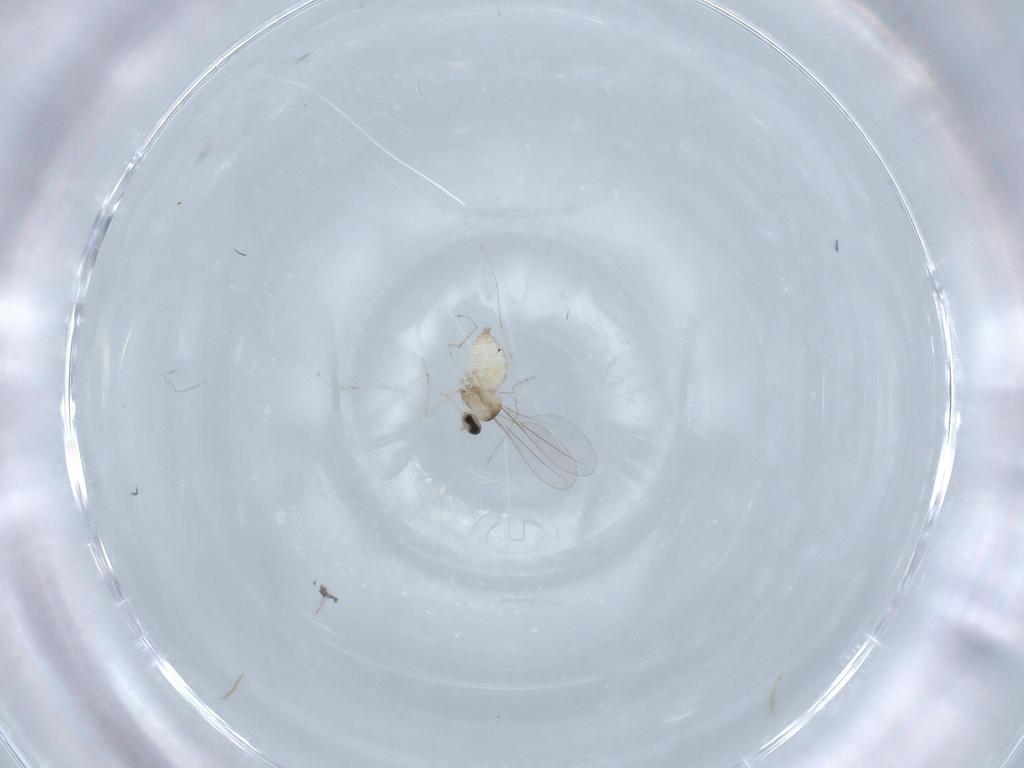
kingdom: Animalia
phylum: Arthropoda
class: Insecta
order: Diptera
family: Cecidomyiidae
